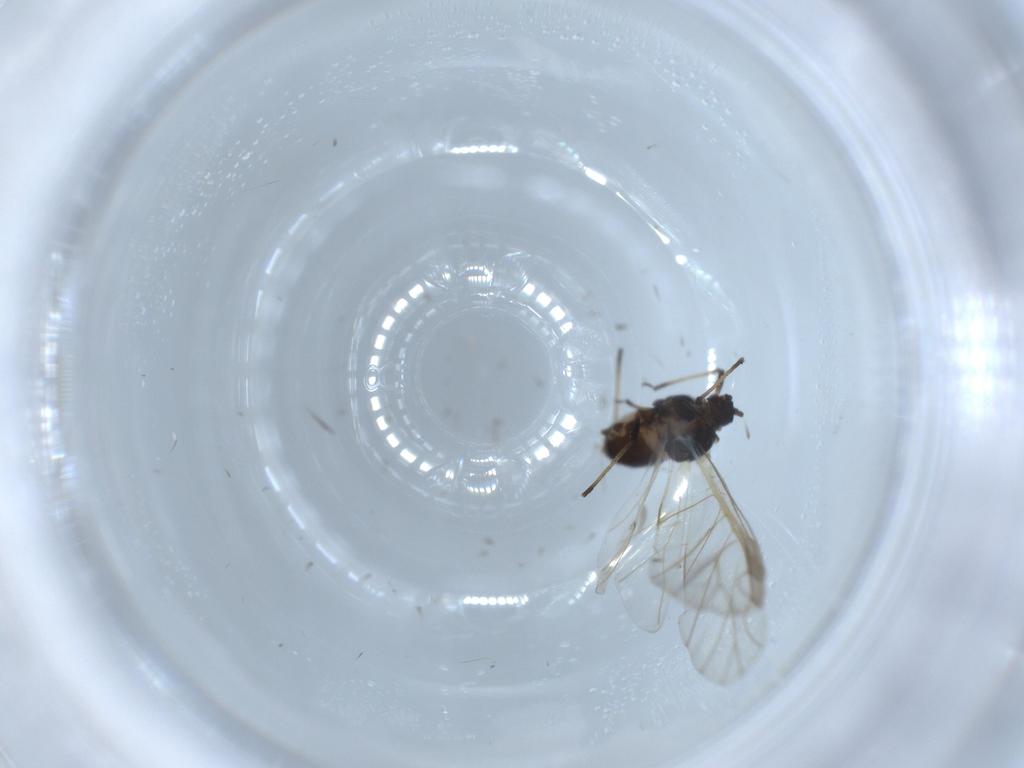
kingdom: Animalia
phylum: Arthropoda
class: Insecta
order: Hemiptera
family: Aphididae
